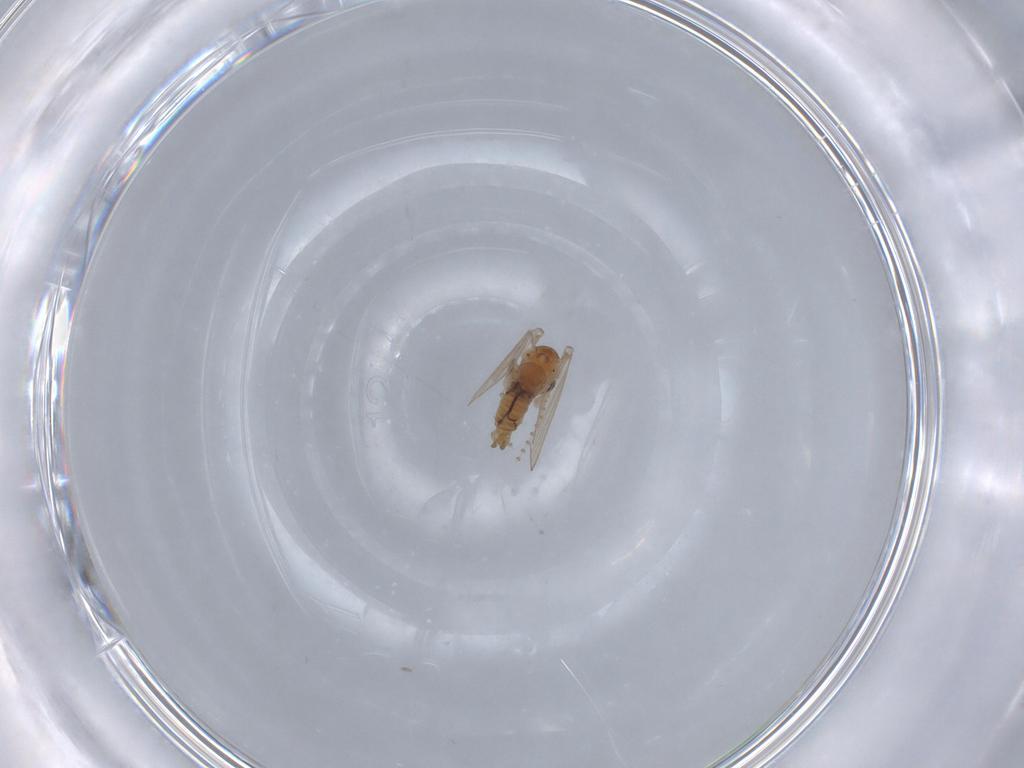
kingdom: Animalia
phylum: Arthropoda
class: Insecta
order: Diptera
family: Cecidomyiidae
